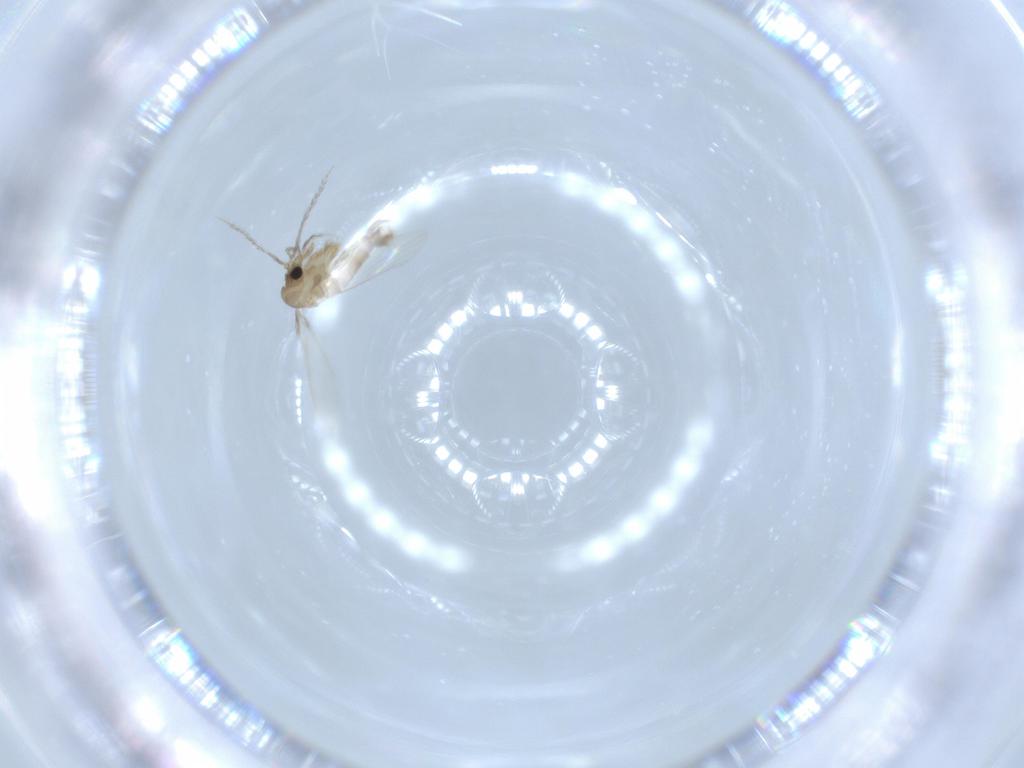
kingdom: Animalia
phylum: Arthropoda
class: Insecta
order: Diptera
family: Psychodidae
